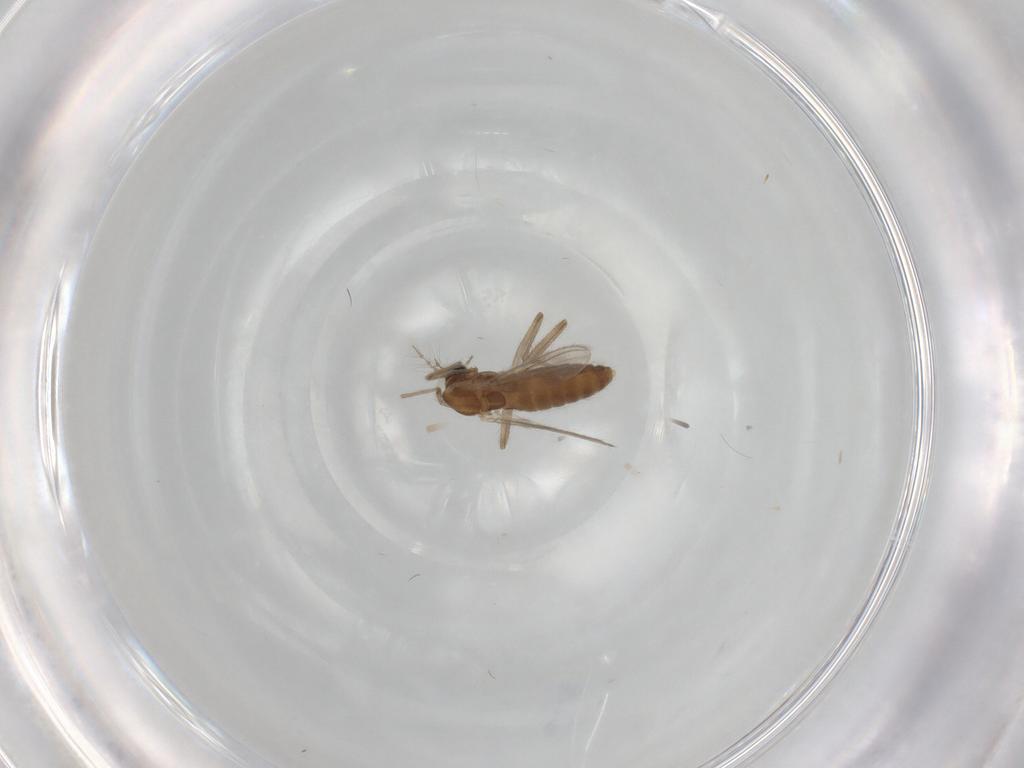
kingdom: Animalia
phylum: Arthropoda
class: Insecta
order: Diptera
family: Chironomidae
